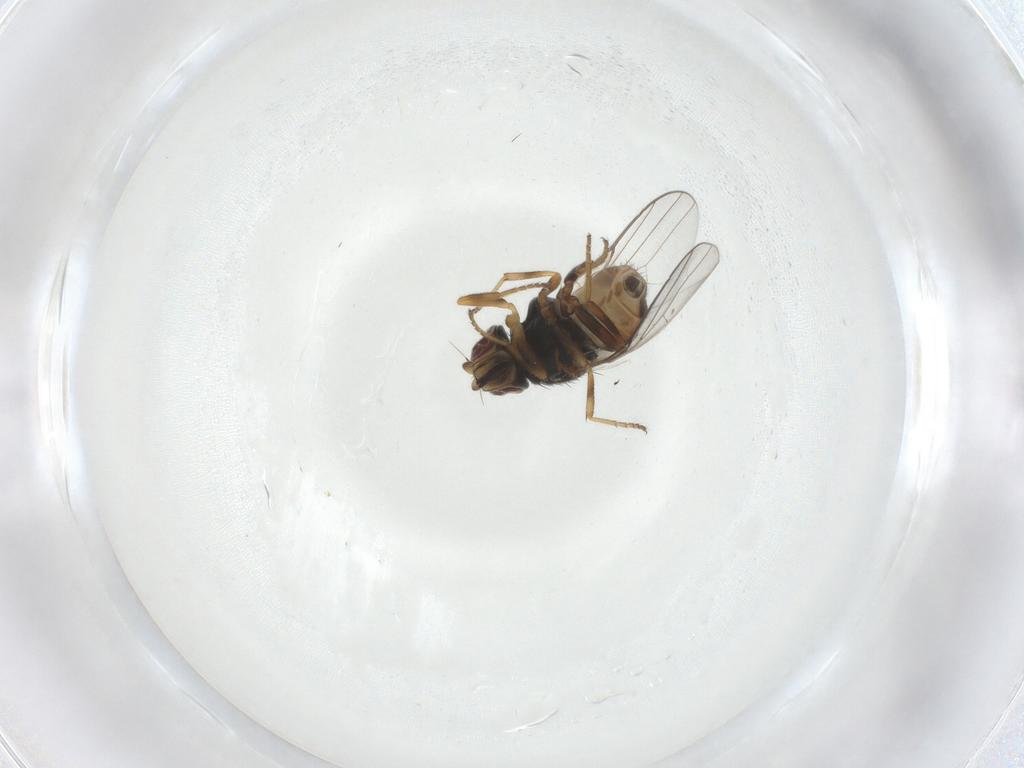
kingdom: Animalia
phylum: Arthropoda
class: Insecta
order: Diptera
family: Chloropidae
